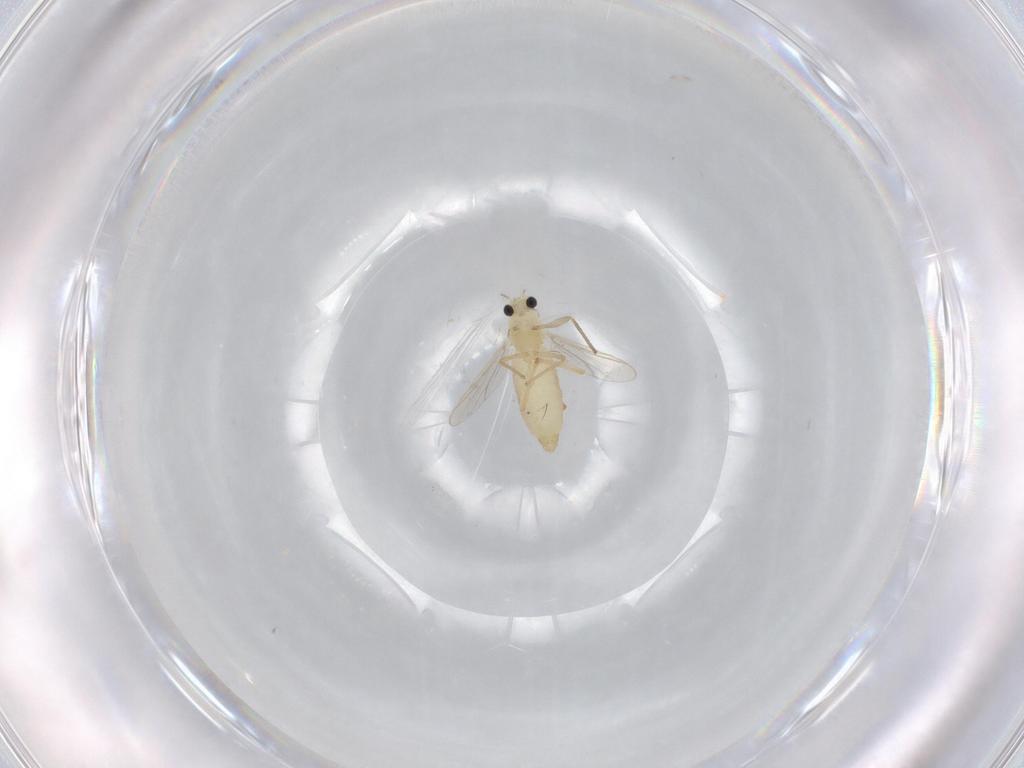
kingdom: Animalia
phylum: Arthropoda
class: Insecta
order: Diptera
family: Chironomidae
